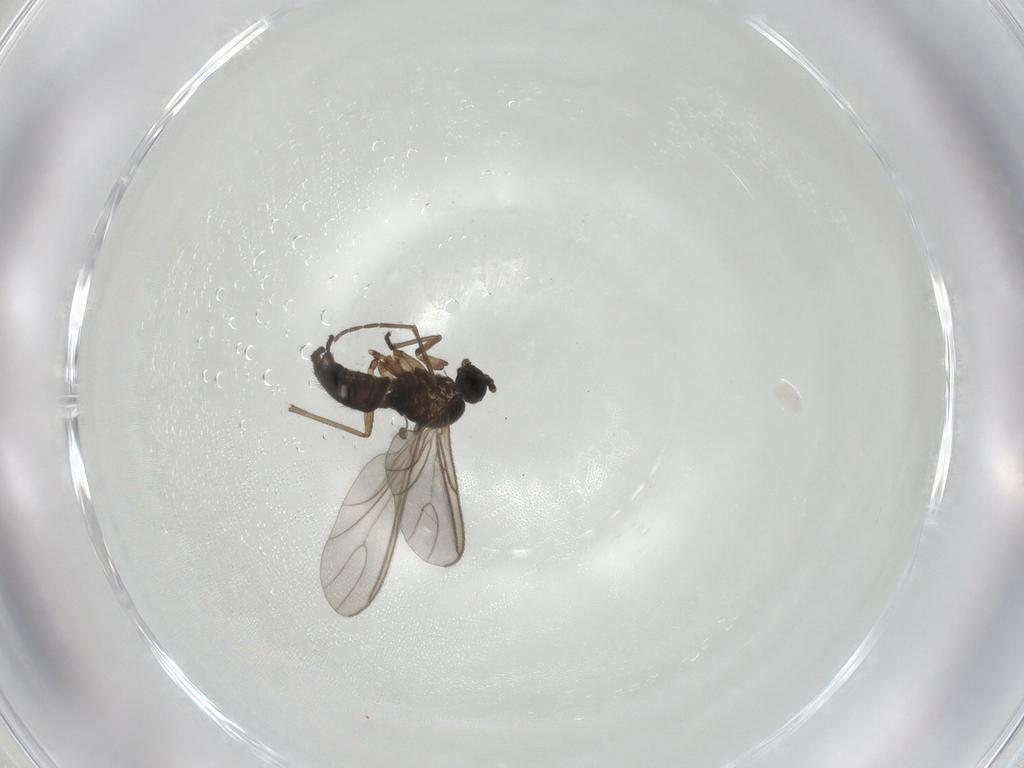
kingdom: Animalia
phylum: Arthropoda
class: Insecta
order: Diptera
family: Sciaridae
